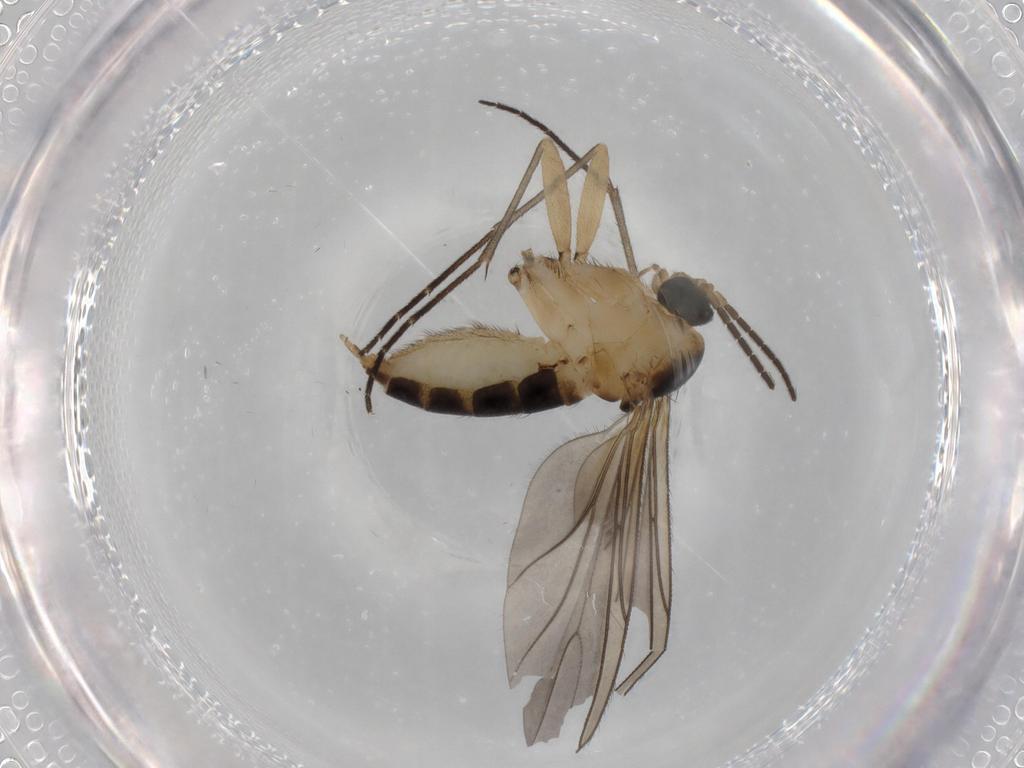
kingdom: Animalia
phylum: Arthropoda
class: Insecta
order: Diptera
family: Sciaridae
